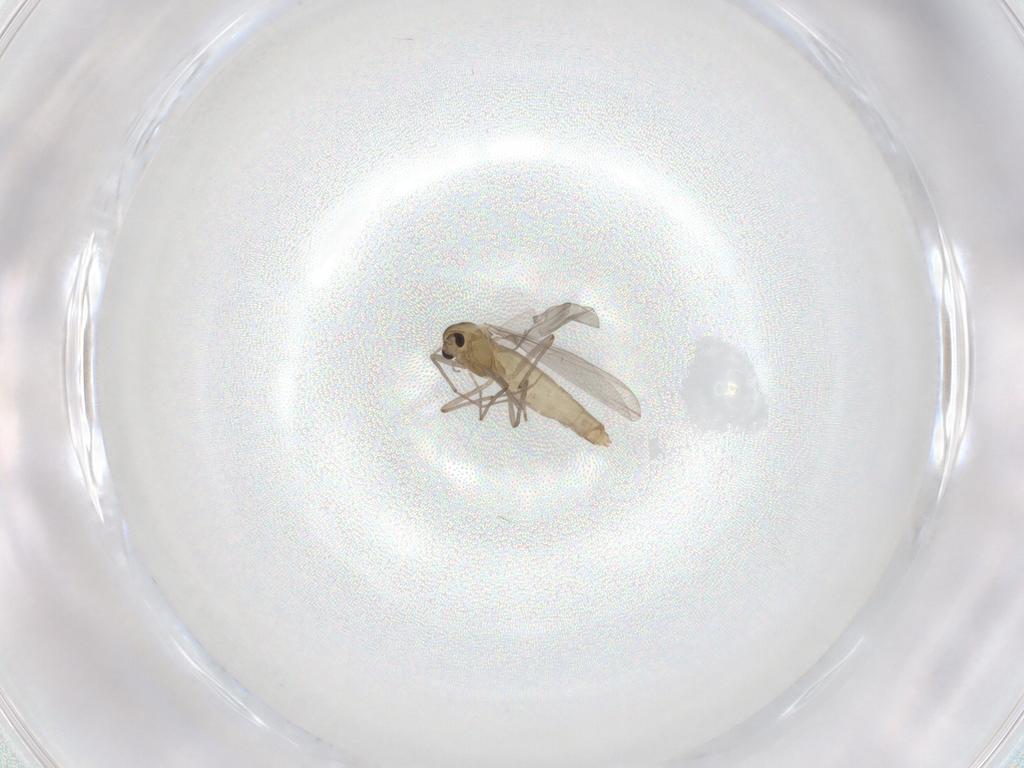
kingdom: Animalia
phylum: Arthropoda
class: Insecta
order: Diptera
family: Chironomidae
